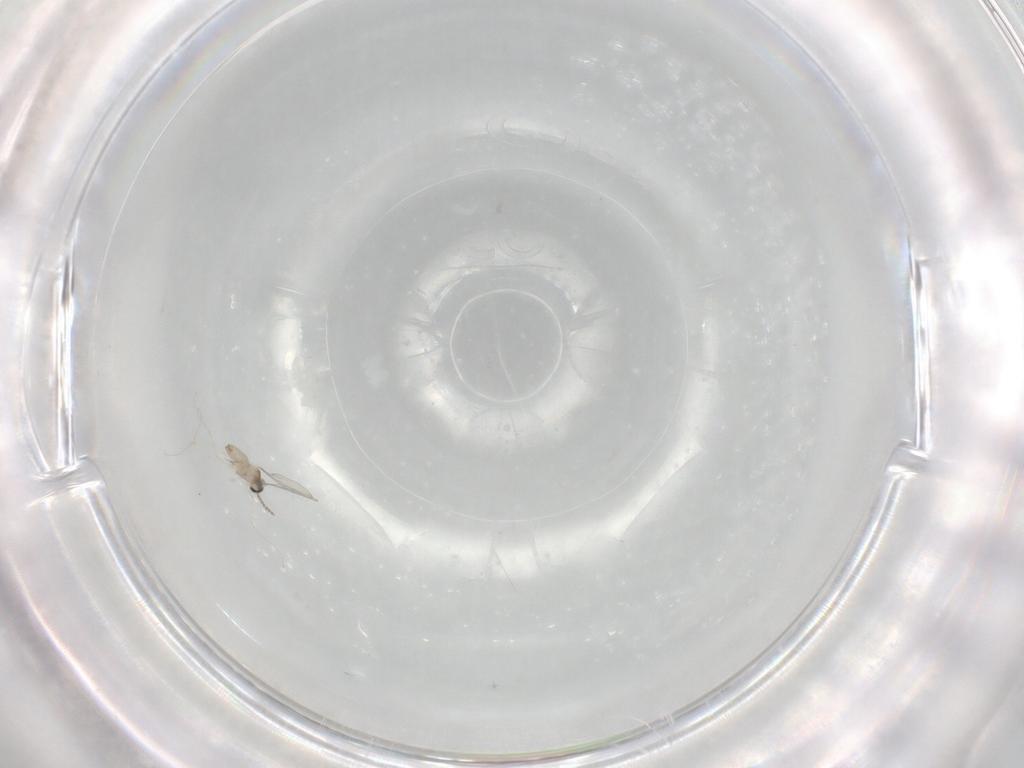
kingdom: Animalia
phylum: Arthropoda
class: Insecta
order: Diptera
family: Cecidomyiidae
